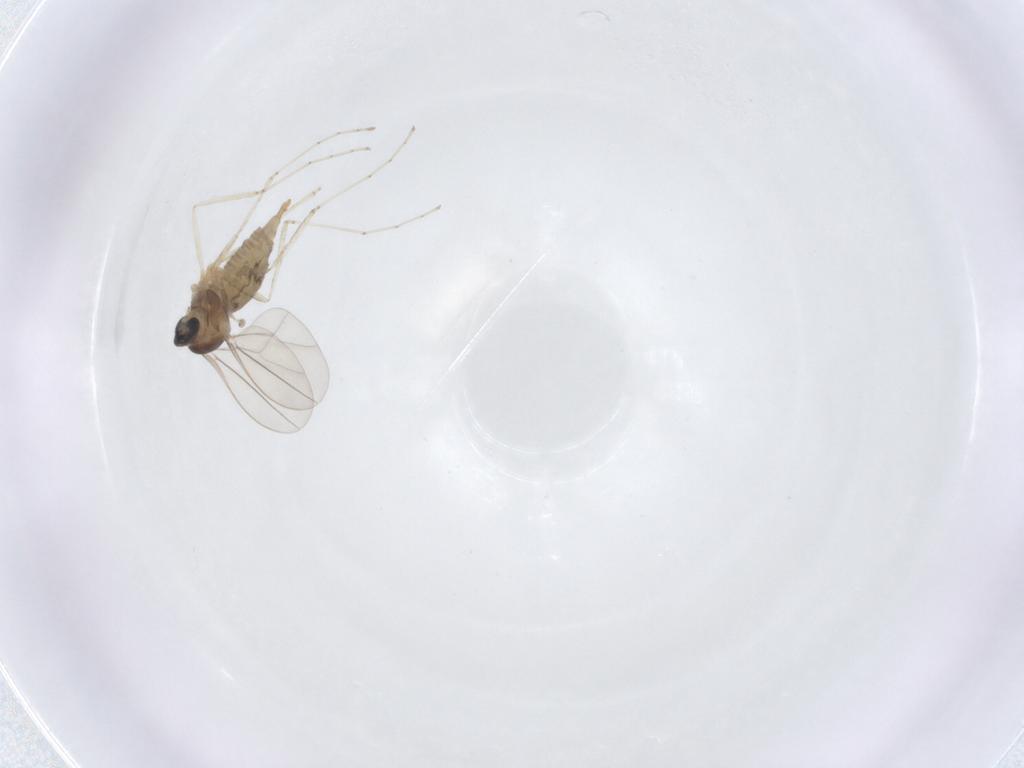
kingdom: Animalia
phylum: Arthropoda
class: Insecta
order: Diptera
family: Cecidomyiidae
